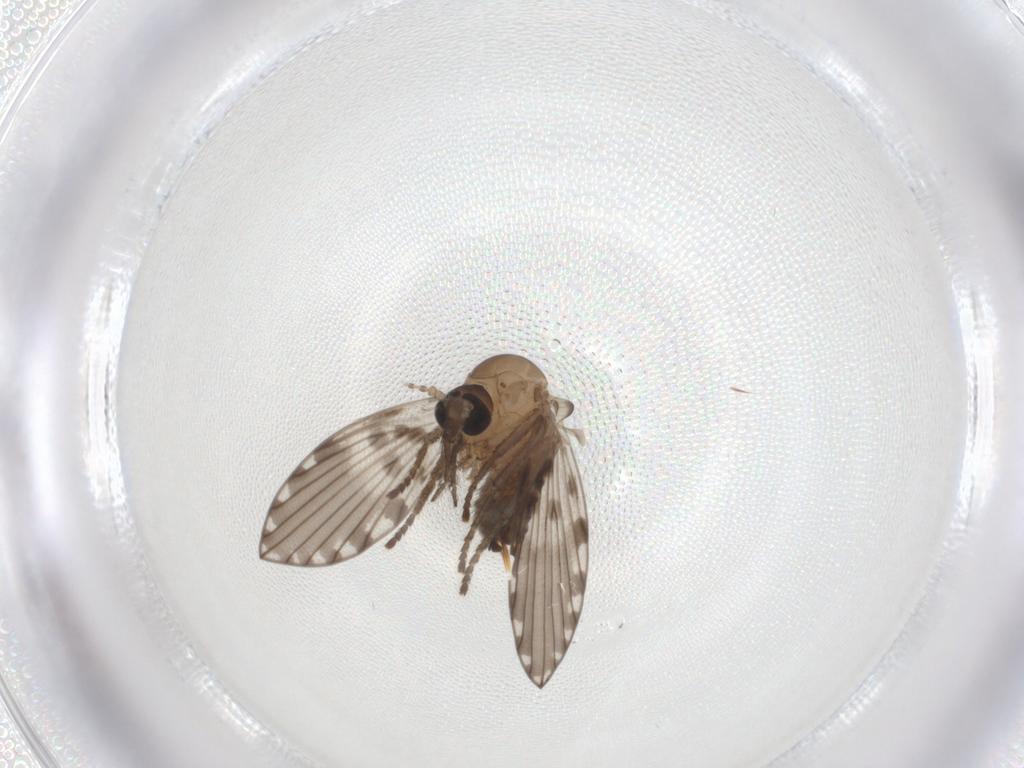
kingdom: Animalia
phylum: Arthropoda
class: Insecta
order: Diptera
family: Psychodidae
